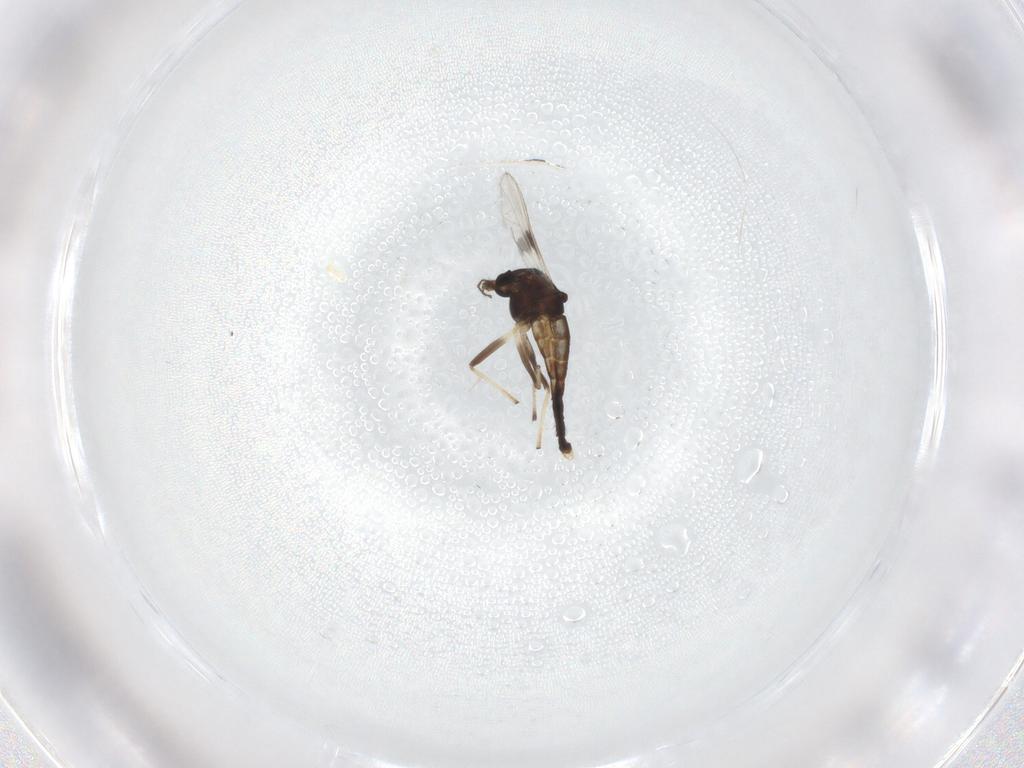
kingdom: Animalia
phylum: Arthropoda
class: Insecta
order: Diptera
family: Chironomidae
